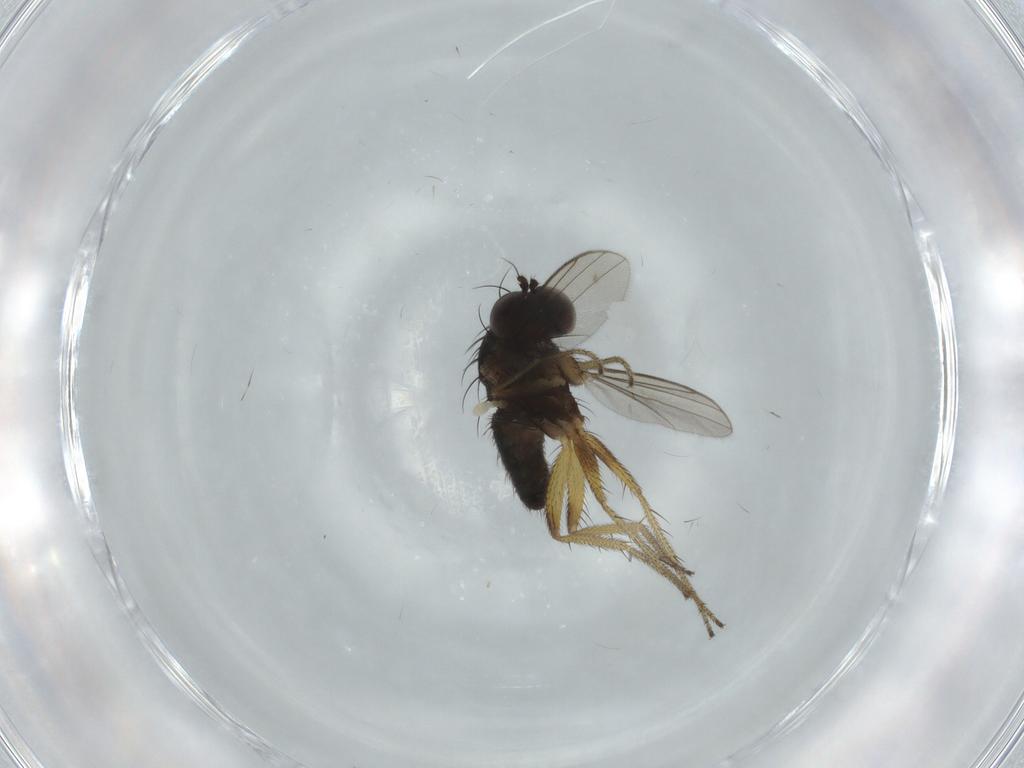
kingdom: Animalia
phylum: Arthropoda
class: Insecta
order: Diptera
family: Dolichopodidae
